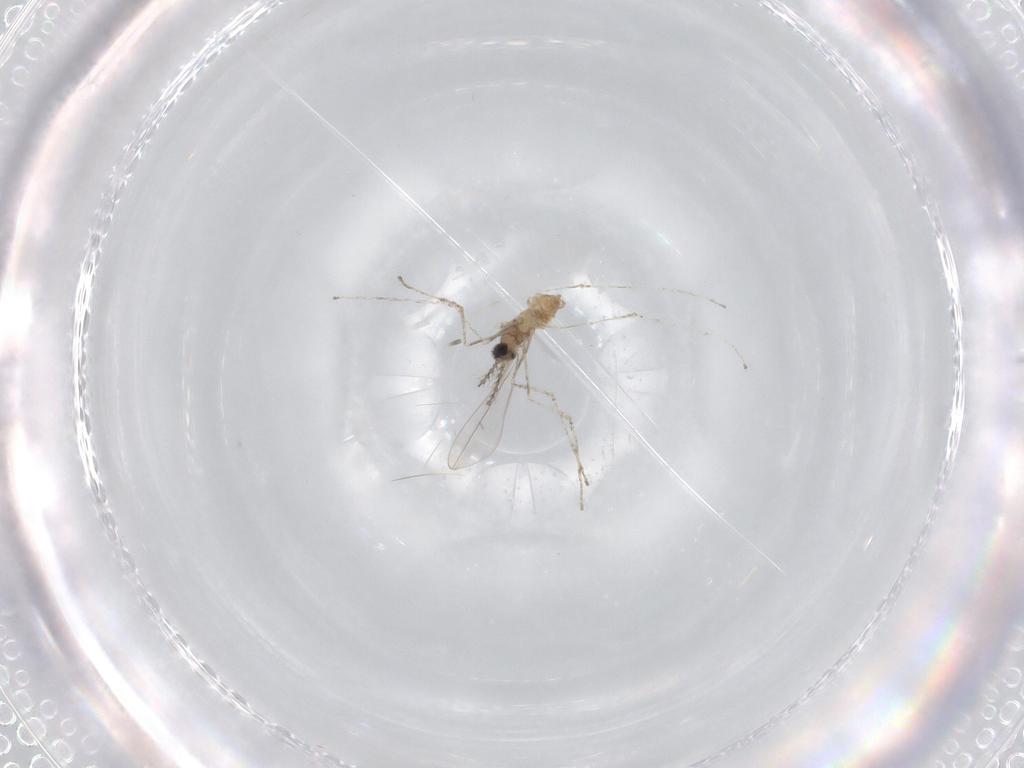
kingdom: Animalia
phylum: Arthropoda
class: Insecta
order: Diptera
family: Cecidomyiidae
